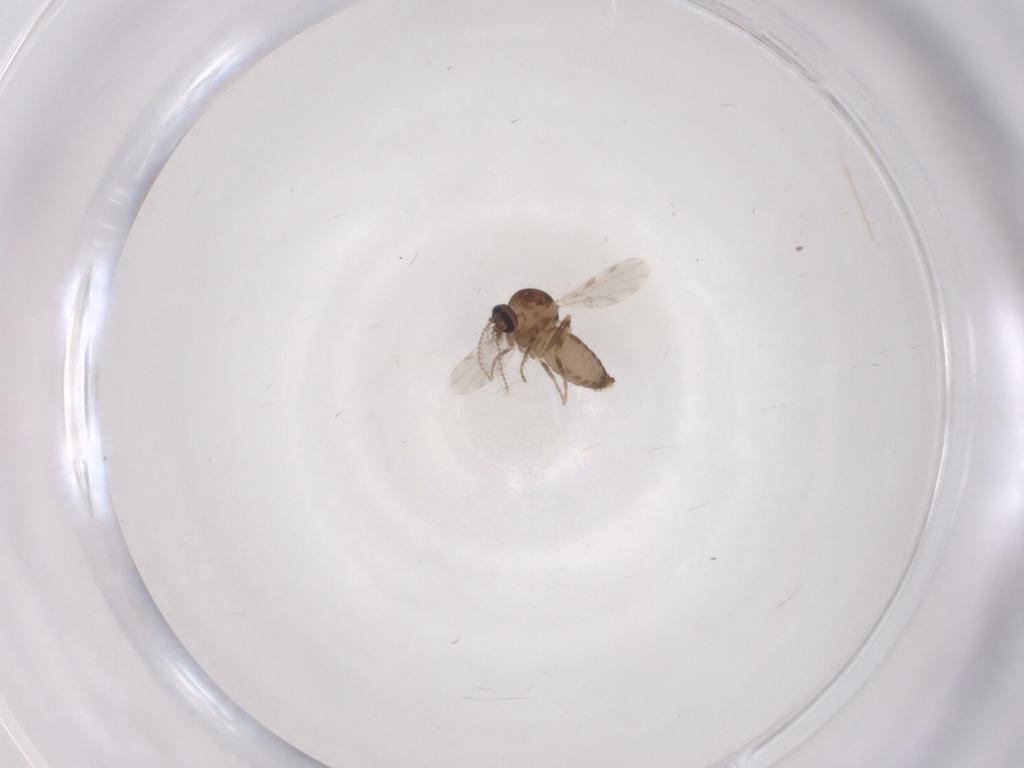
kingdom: Animalia
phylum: Arthropoda
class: Insecta
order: Diptera
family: Ceratopogonidae
